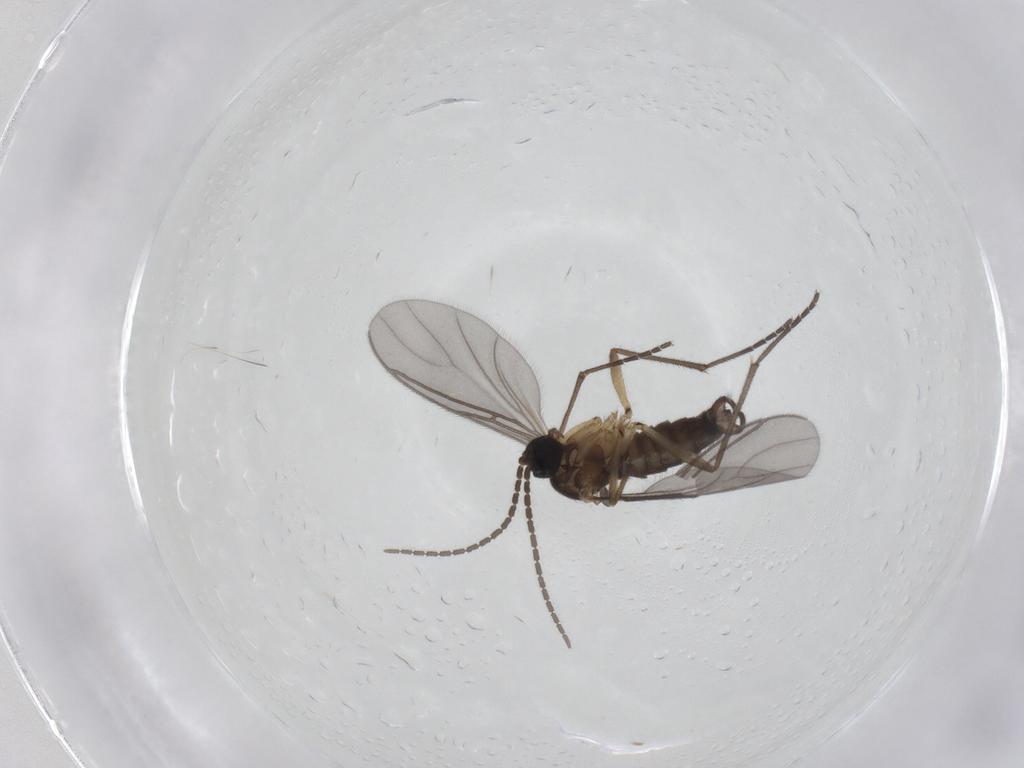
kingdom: Animalia
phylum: Arthropoda
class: Insecta
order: Diptera
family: Sciaridae
